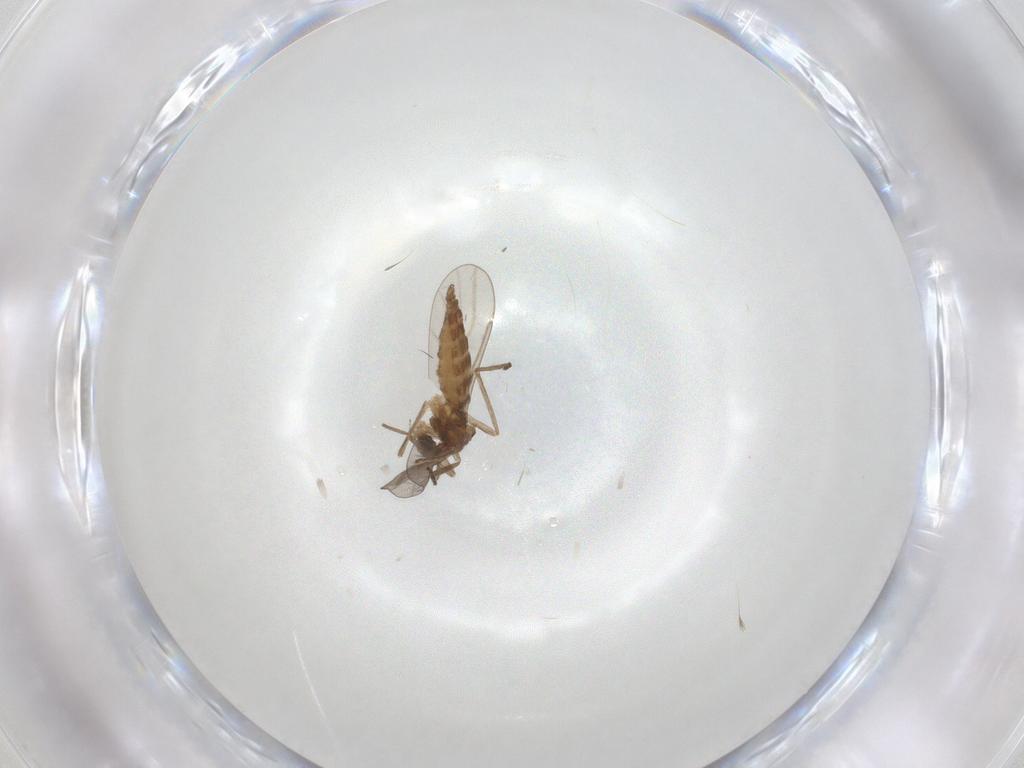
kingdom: Animalia
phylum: Arthropoda
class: Insecta
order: Diptera
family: Cecidomyiidae
